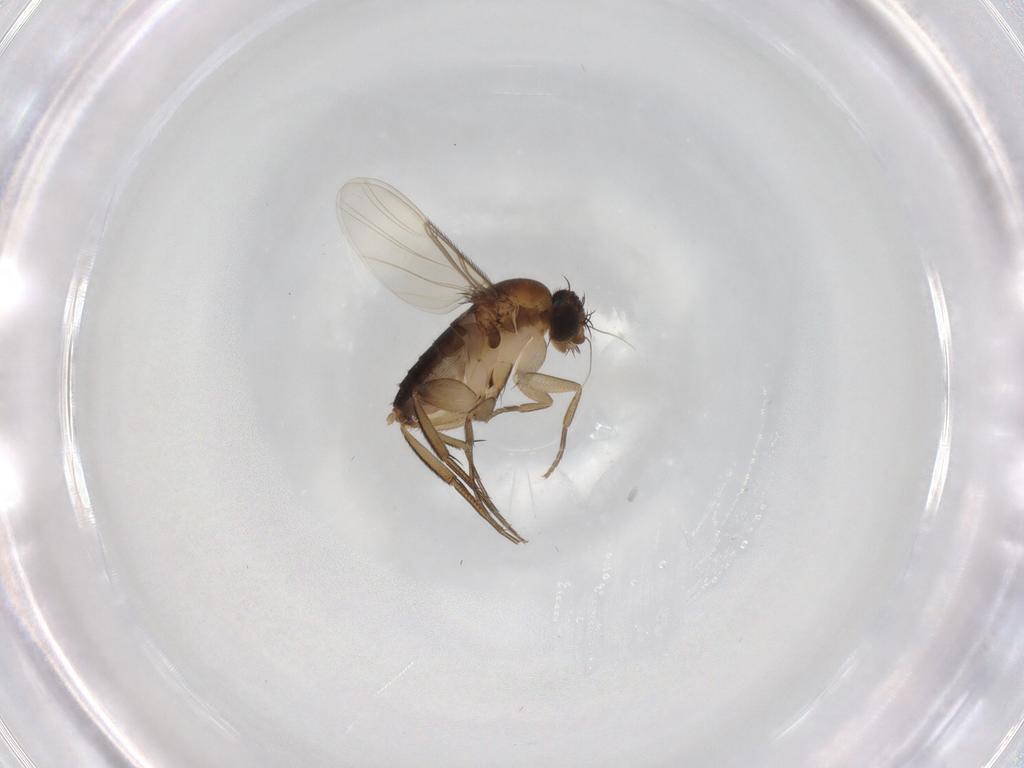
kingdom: Animalia
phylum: Arthropoda
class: Insecta
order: Diptera
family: Phoridae
